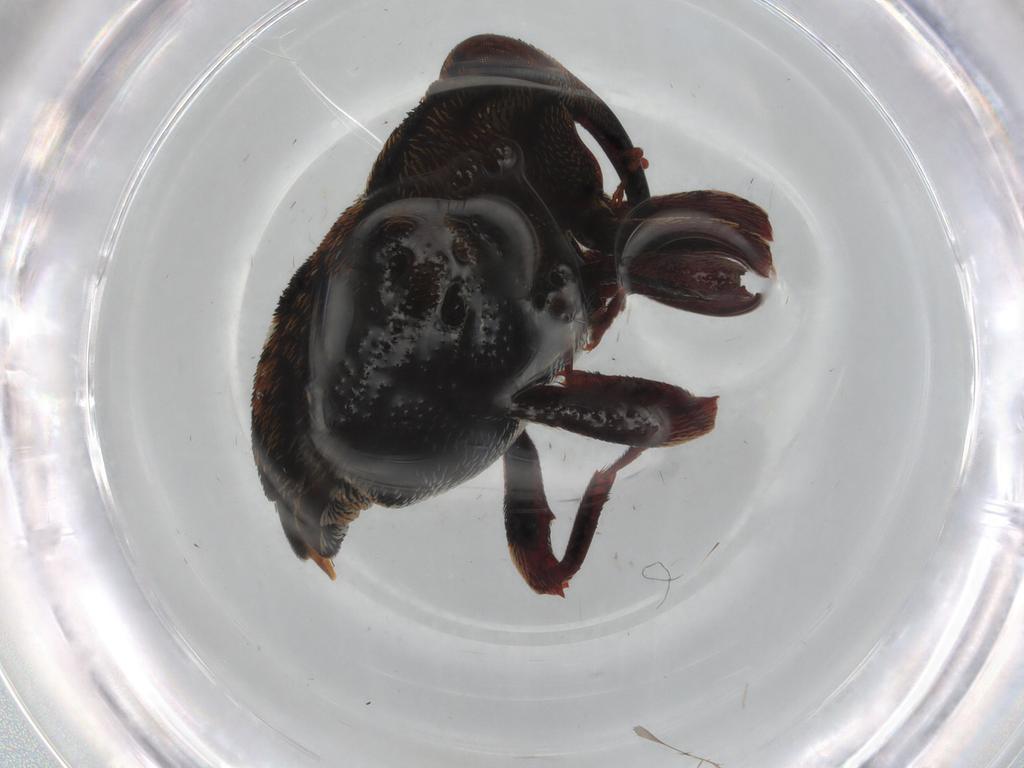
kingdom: Animalia
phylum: Arthropoda
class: Insecta
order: Coleoptera
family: Curculionidae
